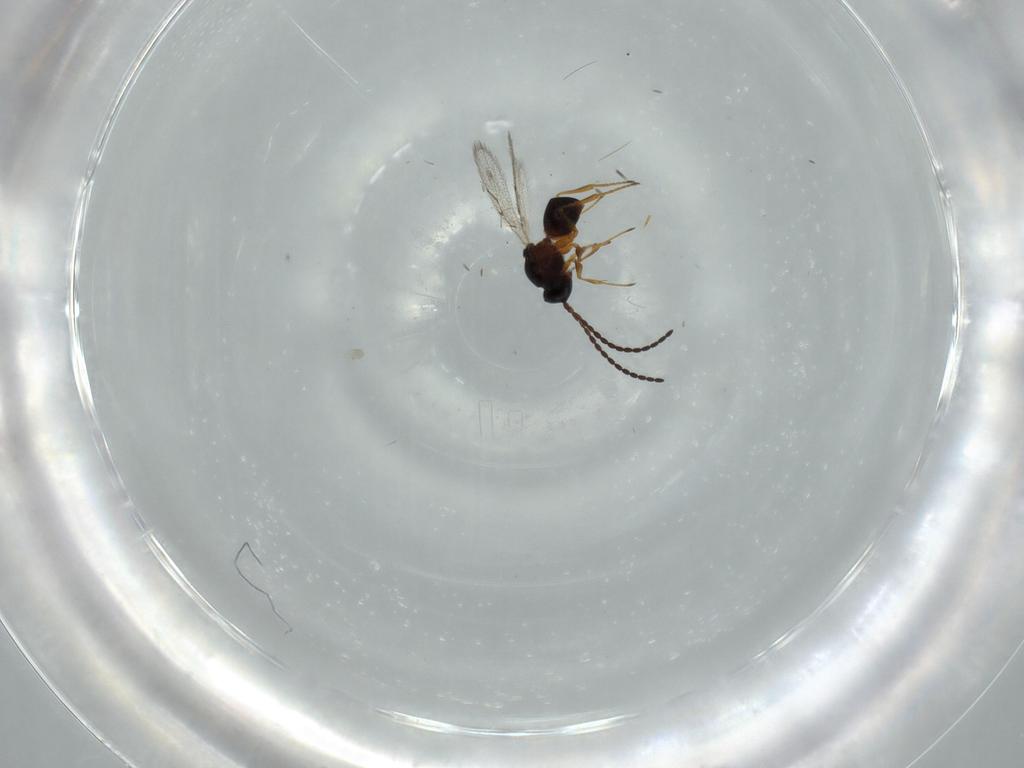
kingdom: Animalia
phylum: Arthropoda
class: Insecta
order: Hymenoptera
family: Figitidae
